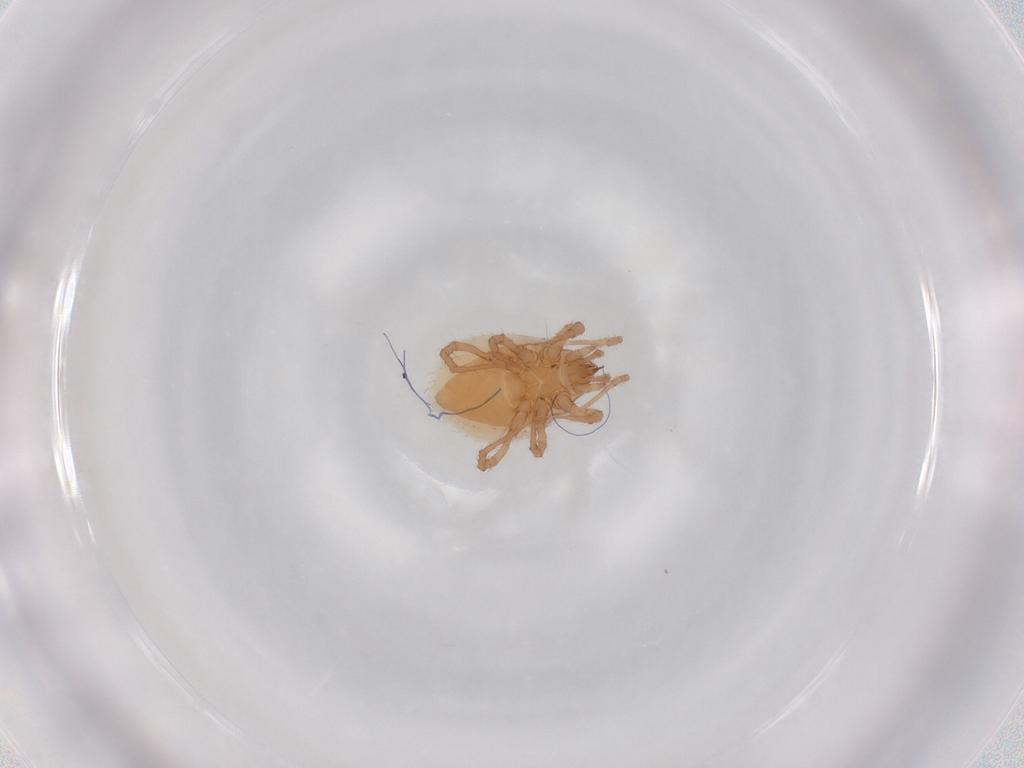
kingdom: Animalia
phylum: Arthropoda
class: Arachnida
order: Mesostigmata
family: Parasitidae
